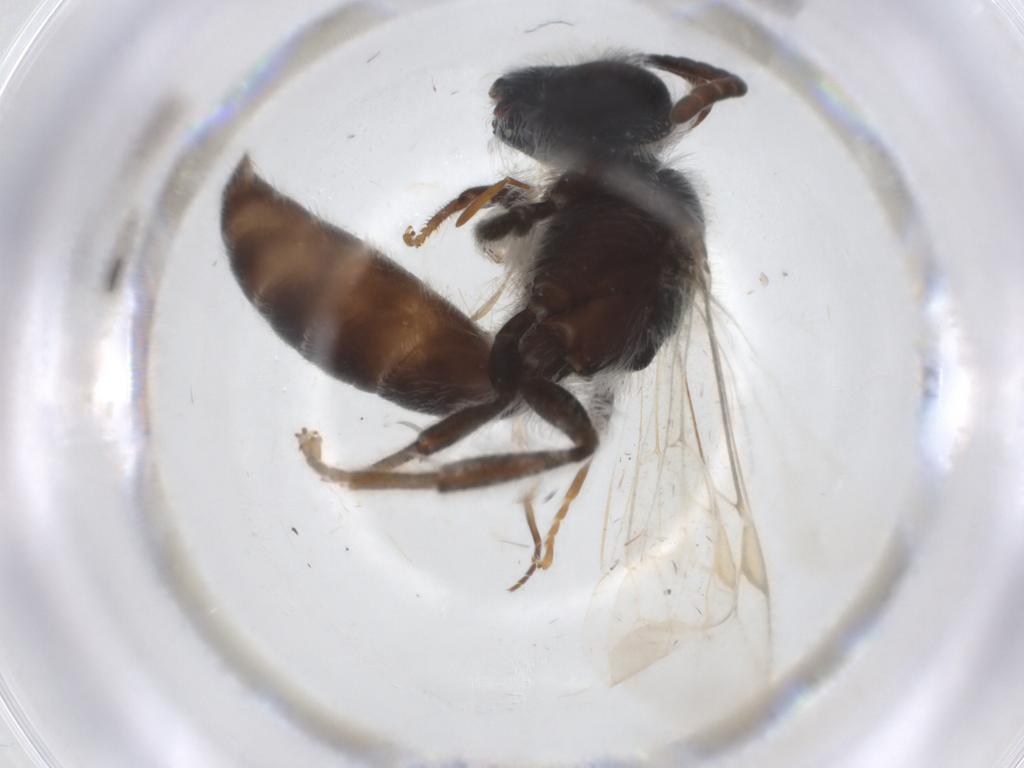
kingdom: Animalia
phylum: Arthropoda
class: Insecta
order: Hymenoptera
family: Andrenidae
